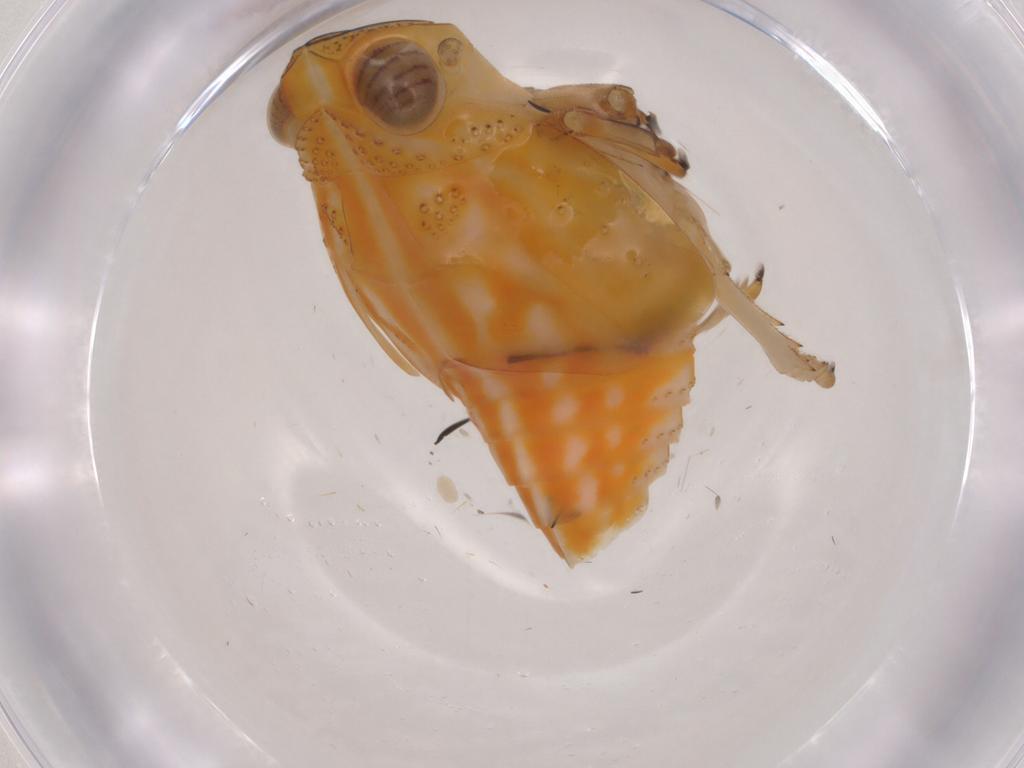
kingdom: Animalia
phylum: Arthropoda
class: Insecta
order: Hemiptera
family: Issidae
